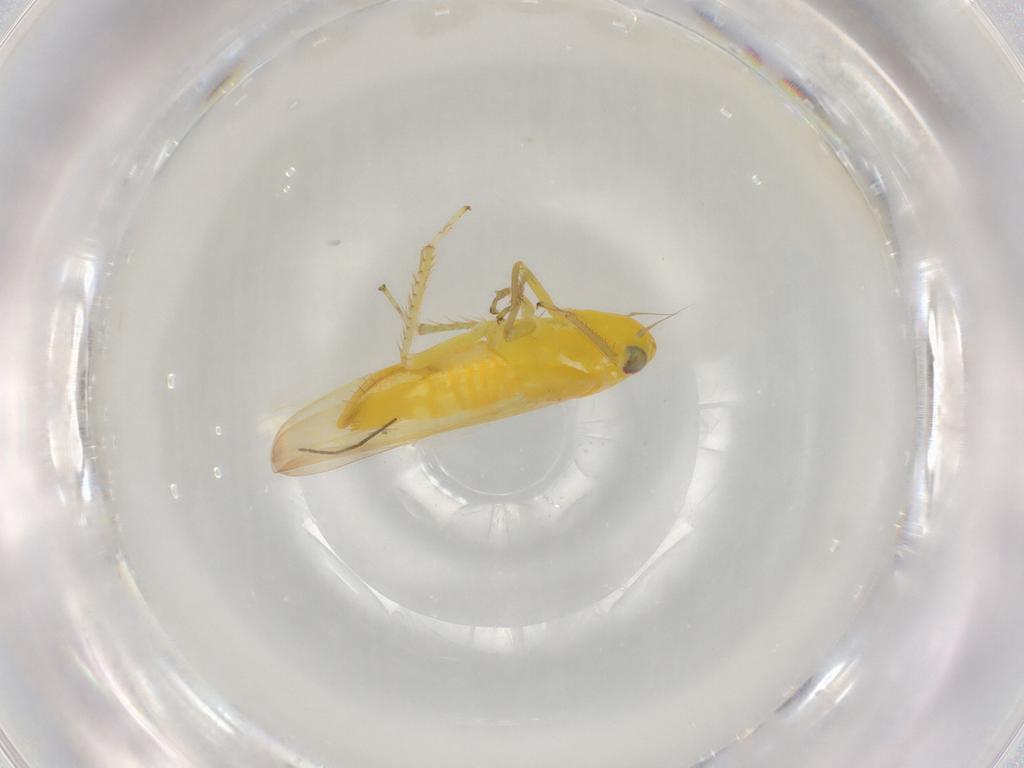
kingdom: Animalia
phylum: Arthropoda
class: Insecta
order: Hemiptera
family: Cicadellidae
